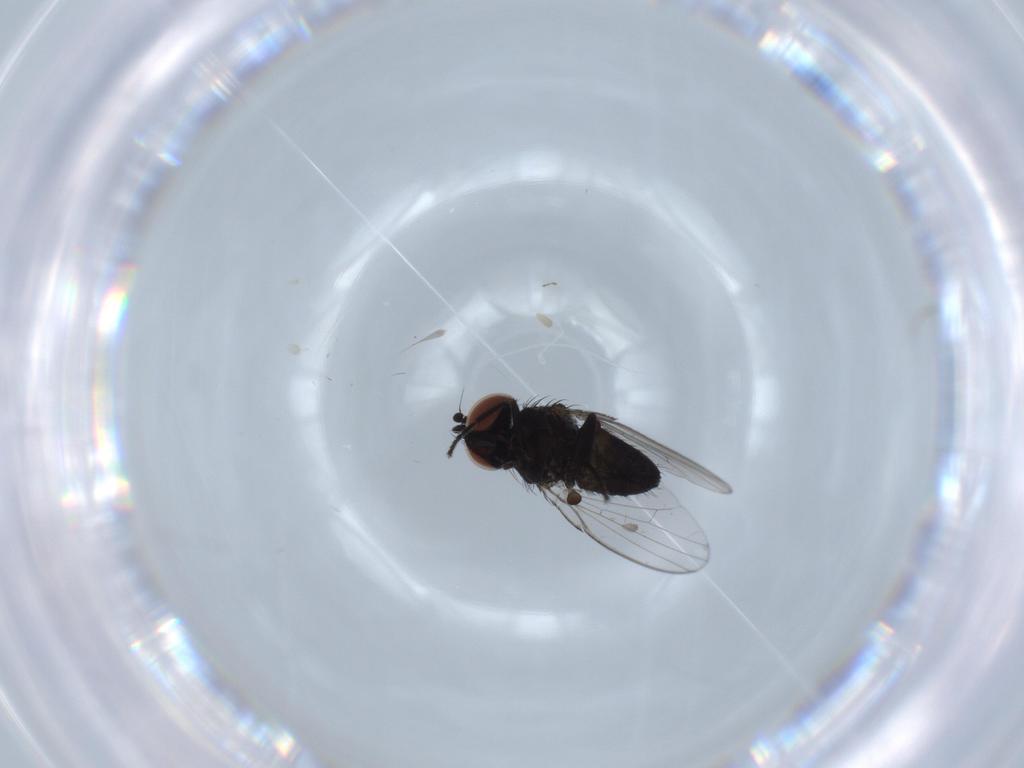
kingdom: Animalia
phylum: Arthropoda
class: Insecta
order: Diptera
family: Milichiidae
